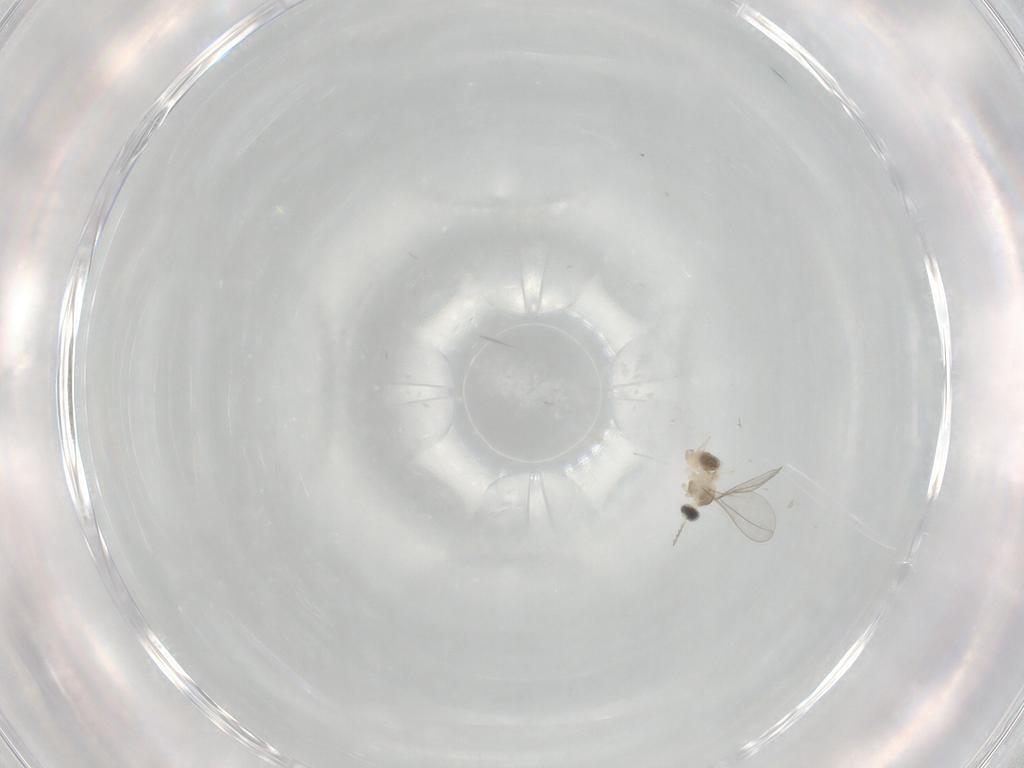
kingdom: Animalia
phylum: Arthropoda
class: Insecta
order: Diptera
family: Cecidomyiidae
